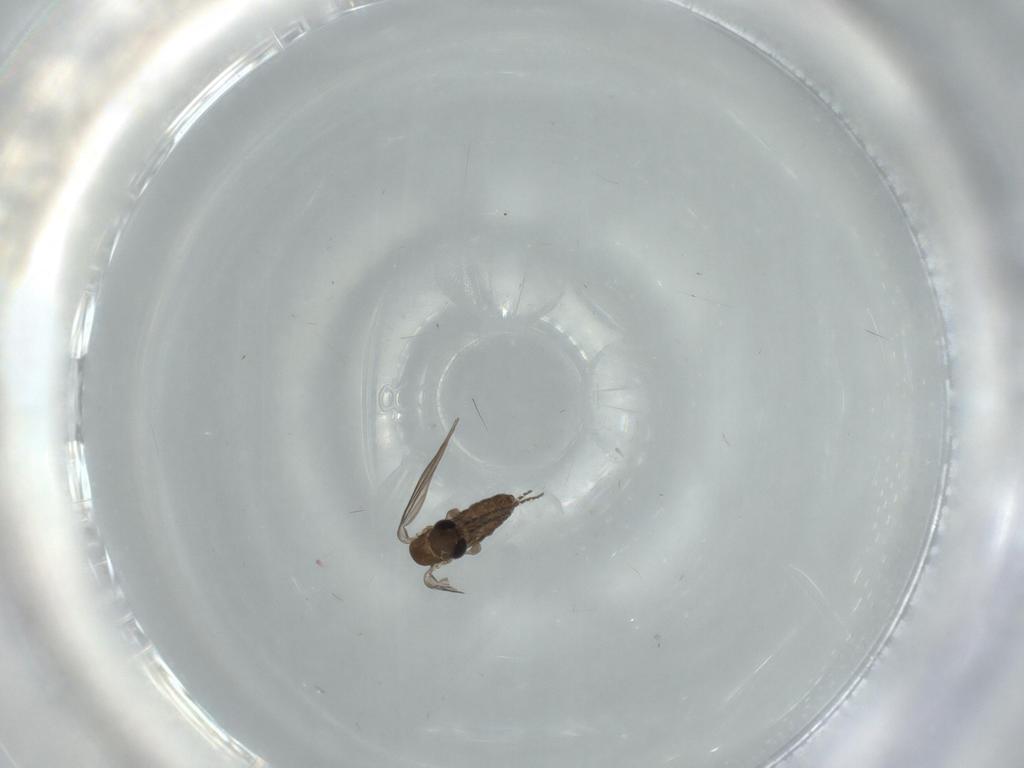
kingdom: Animalia
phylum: Arthropoda
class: Insecta
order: Diptera
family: Psychodidae
